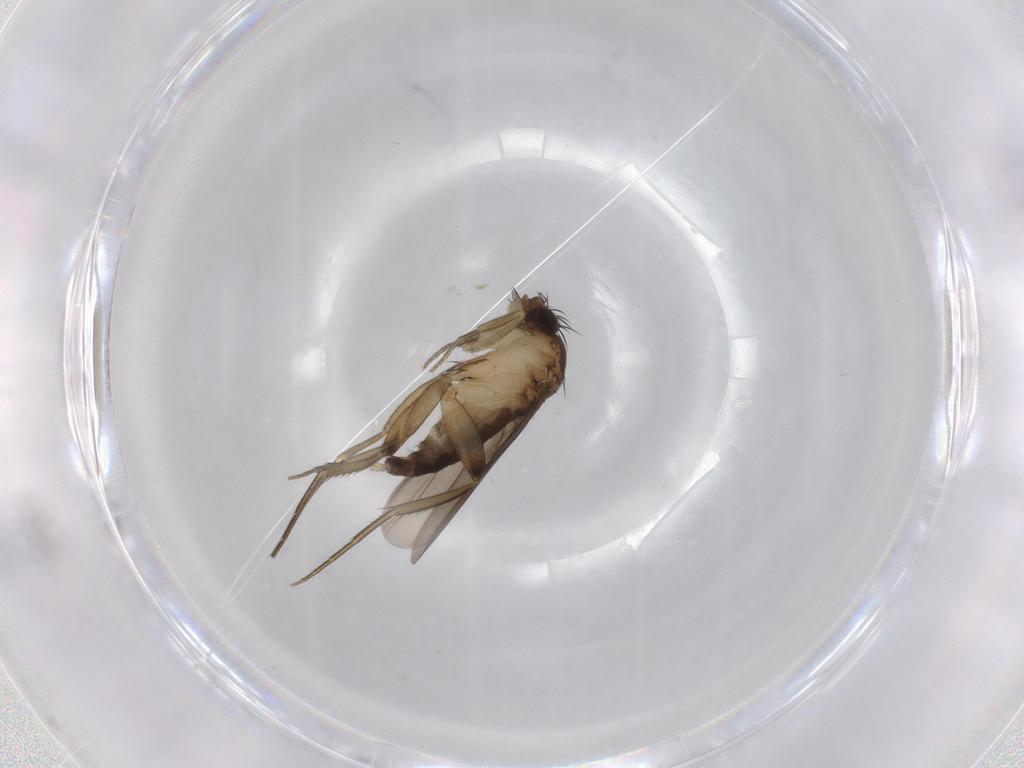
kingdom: Animalia
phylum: Arthropoda
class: Insecta
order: Diptera
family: Phoridae
